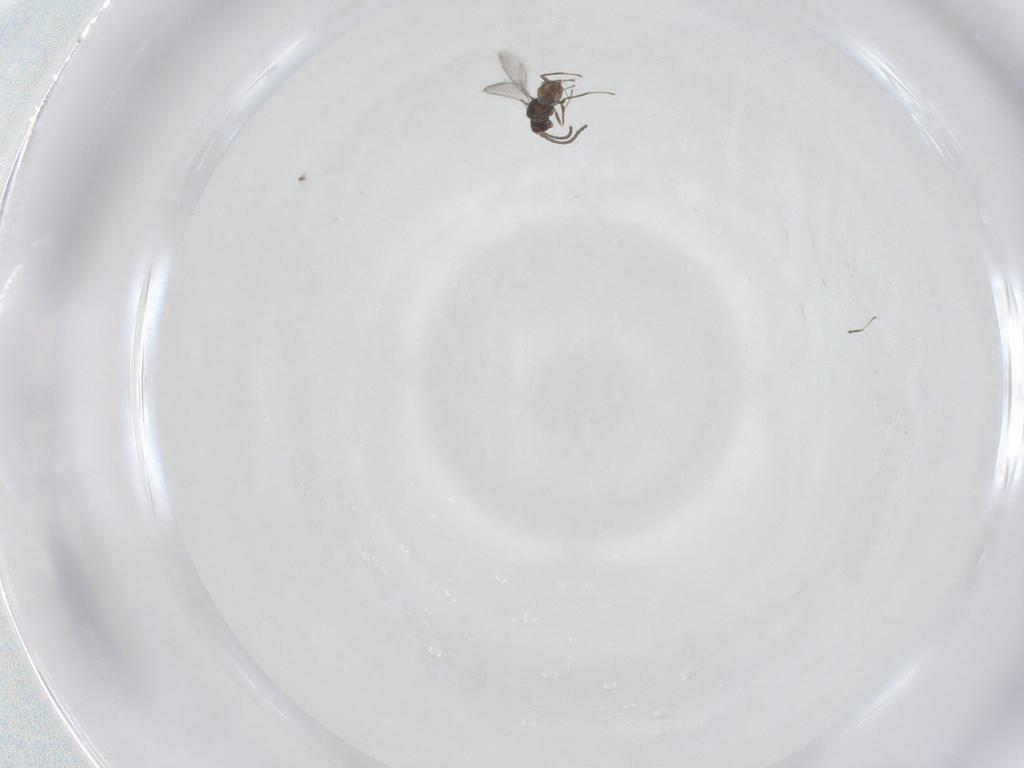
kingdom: Animalia
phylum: Arthropoda
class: Insecta
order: Hymenoptera
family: Mymaridae
